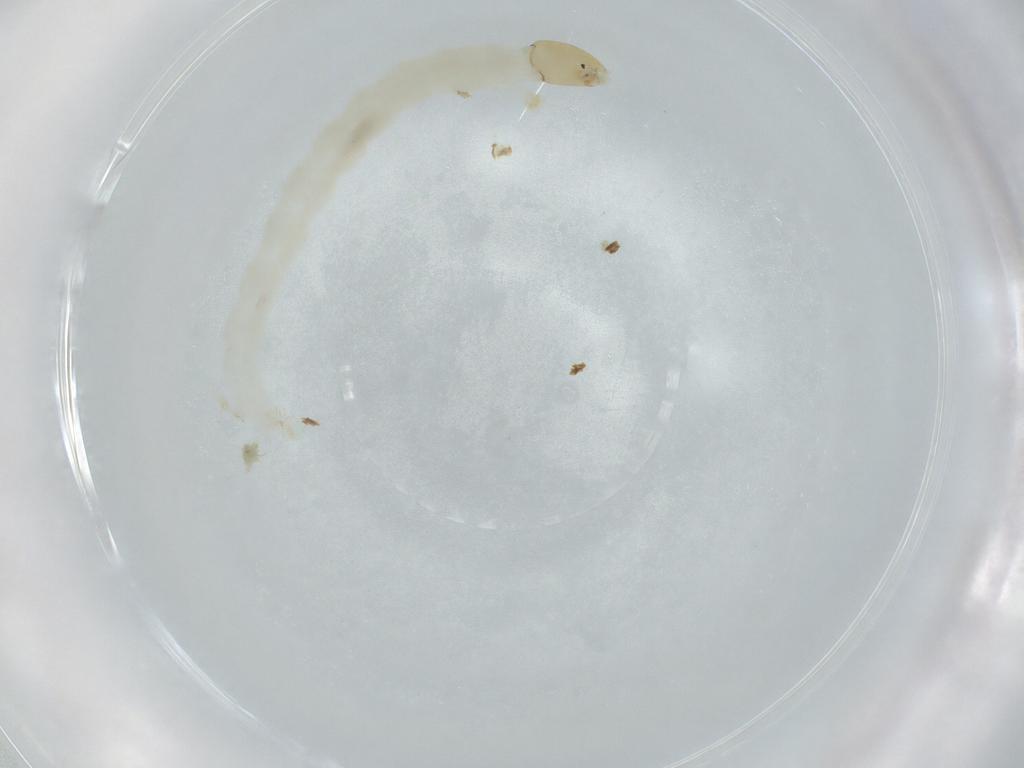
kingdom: Animalia
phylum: Arthropoda
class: Insecta
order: Diptera
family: Chironomidae
